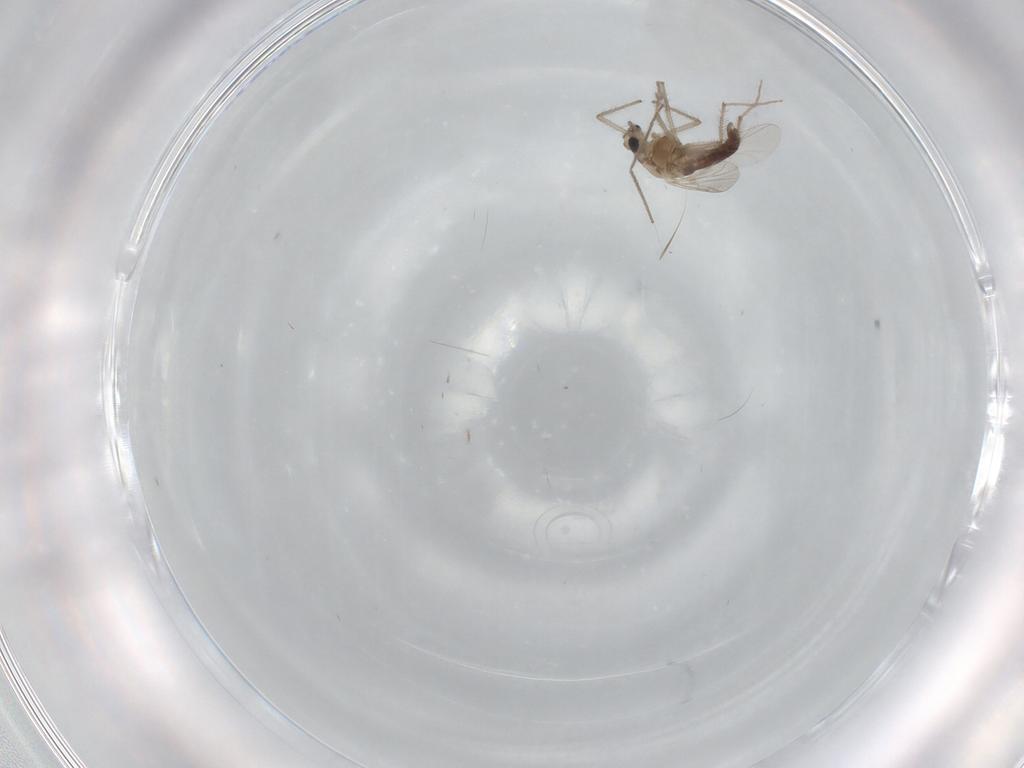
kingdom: Animalia
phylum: Arthropoda
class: Insecta
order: Diptera
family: Chironomidae
